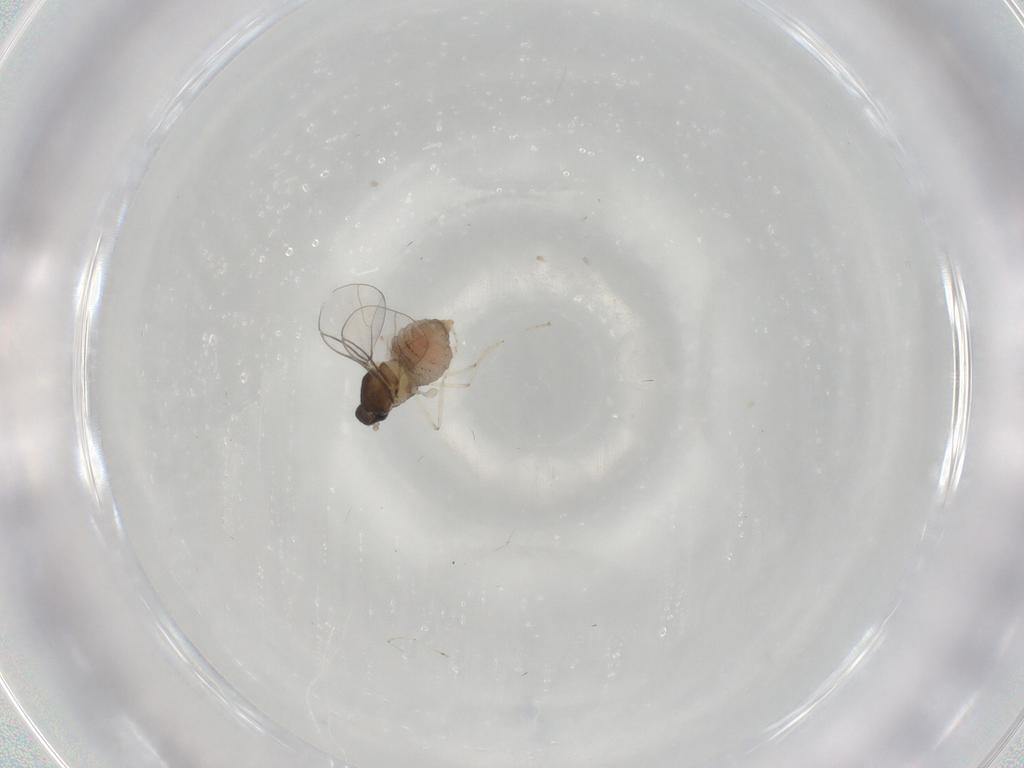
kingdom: Animalia
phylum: Arthropoda
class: Insecta
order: Diptera
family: Cecidomyiidae
